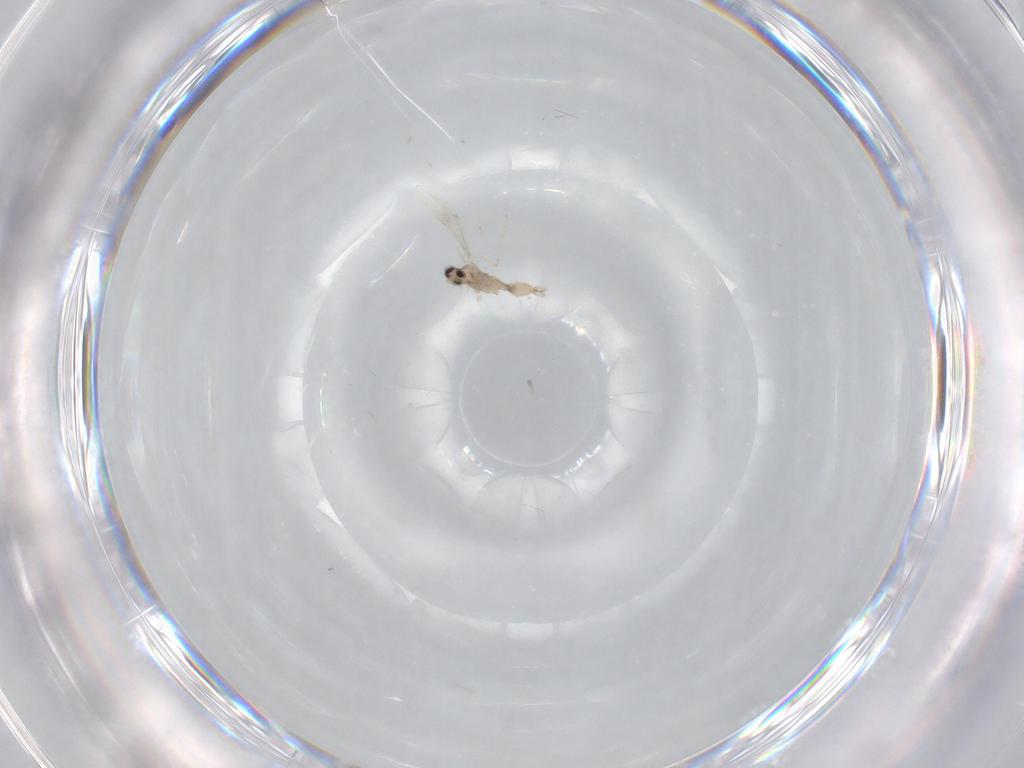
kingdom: Animalia
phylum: Arthropoda
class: Insecta
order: Diptera
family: Cecidomyiidae
